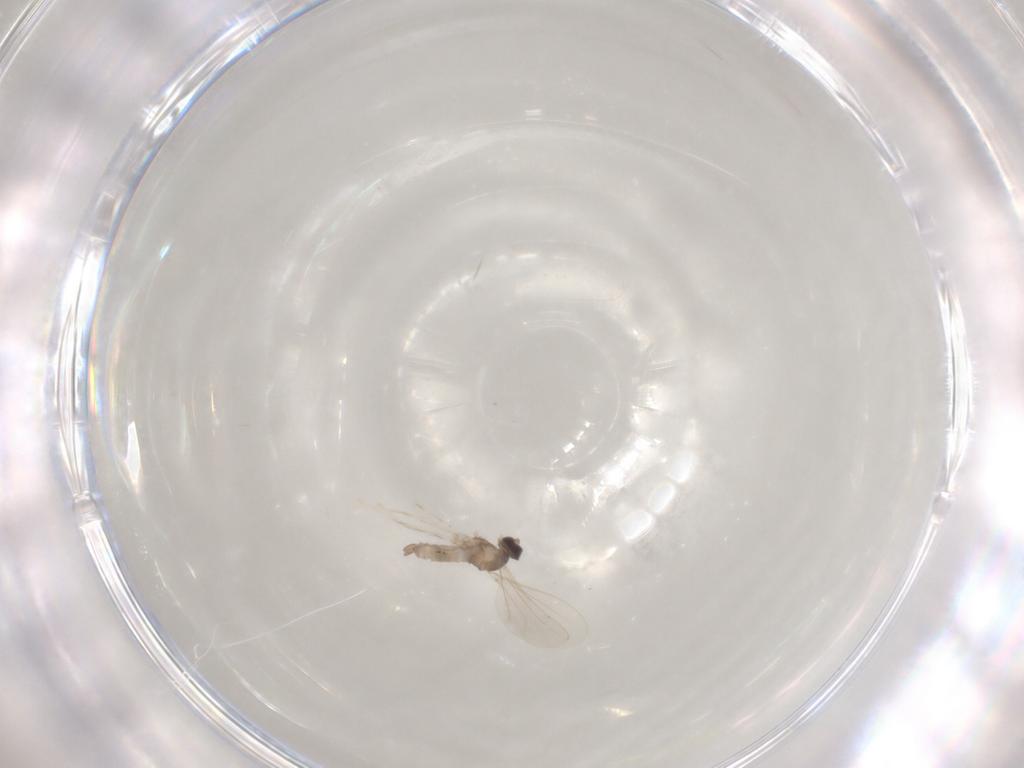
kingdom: Animalia
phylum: Arthropoda
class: Insecta
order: Diptera
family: Cecidomyiidae
